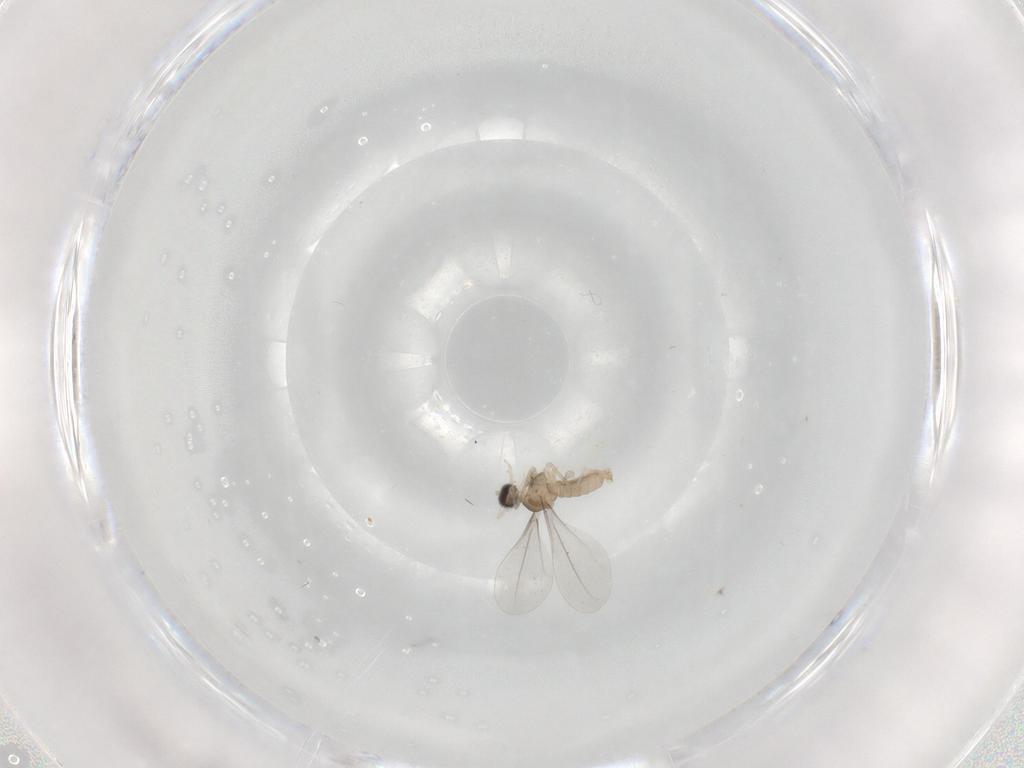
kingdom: Animalia
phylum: Arthropoda
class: Insecta
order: Diptera
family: Cecidomyiidae
